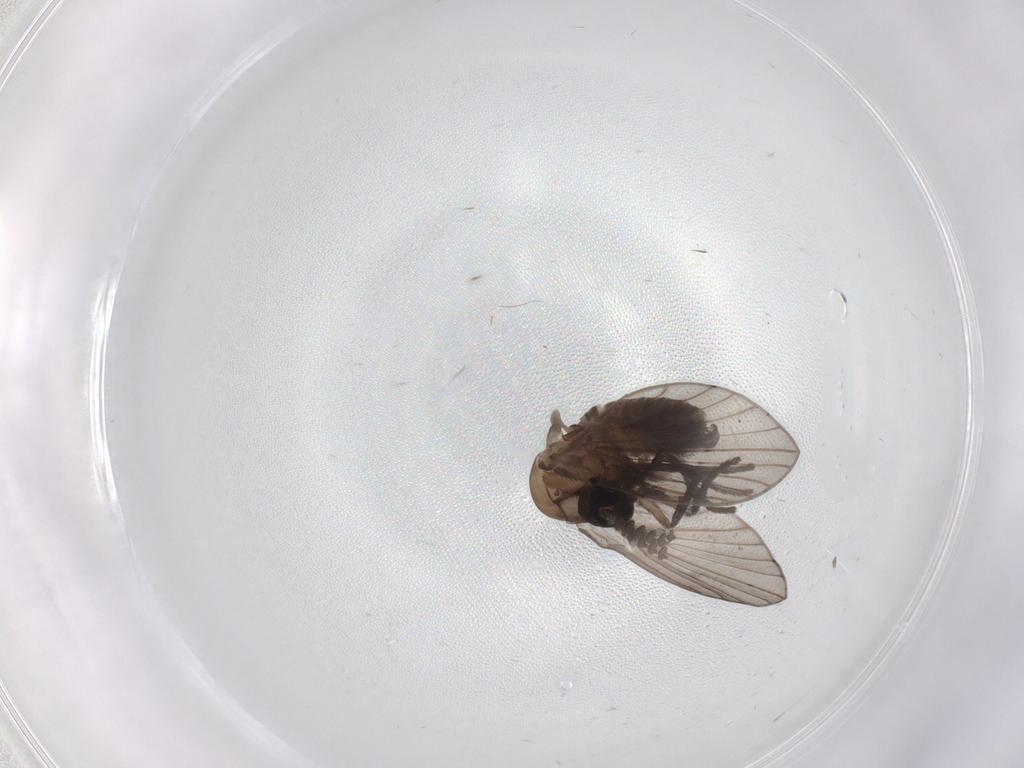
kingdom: Animalia
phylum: Arthropoda
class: Insecta
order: Diptera
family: Psychodidae
